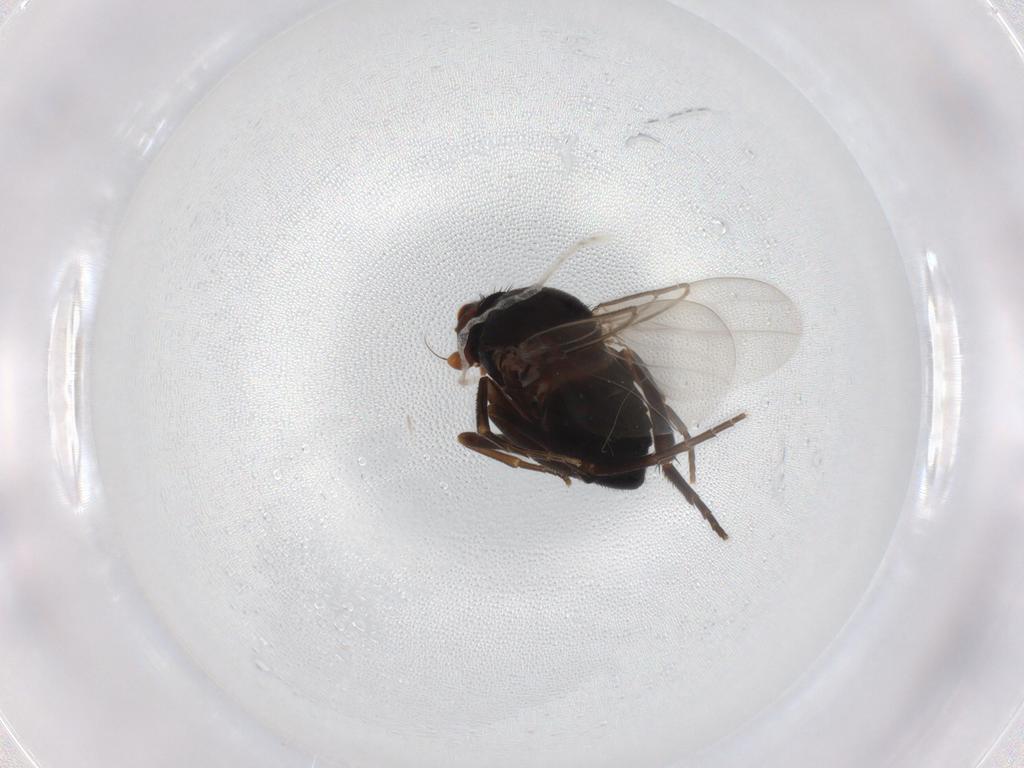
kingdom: Animalia
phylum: Arthropoda
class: Insecta
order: Diptera
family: Phoridae
